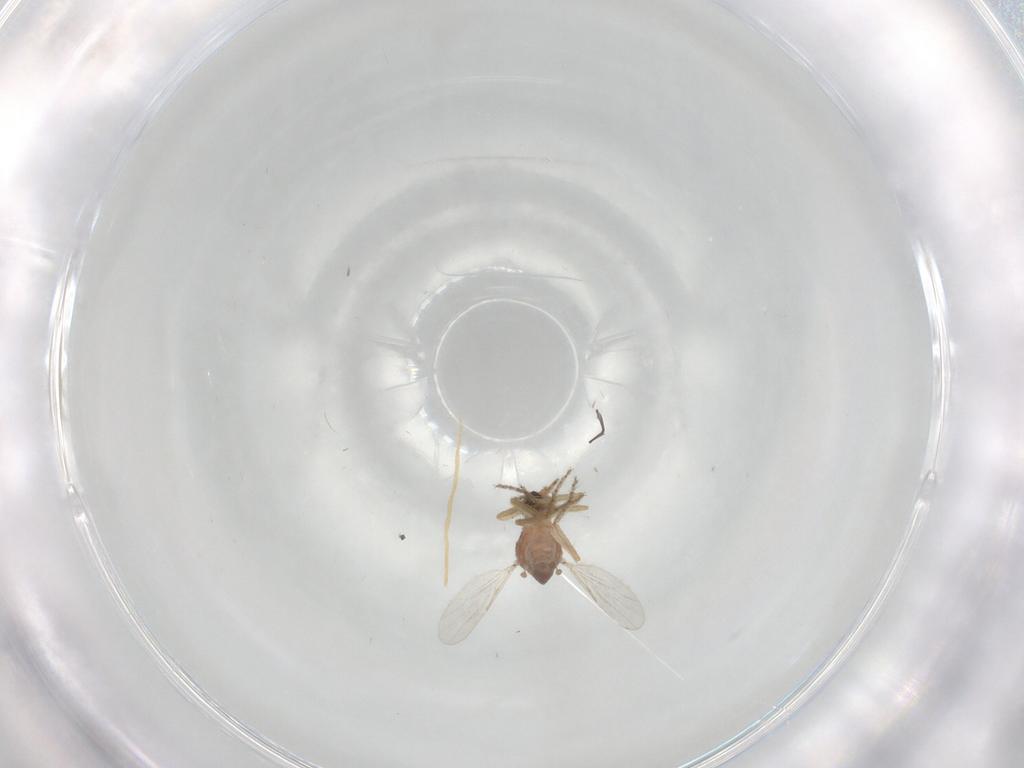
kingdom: Animalia
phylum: Arthropoda
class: Insecta
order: Diptera
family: Ceratopogonidae
